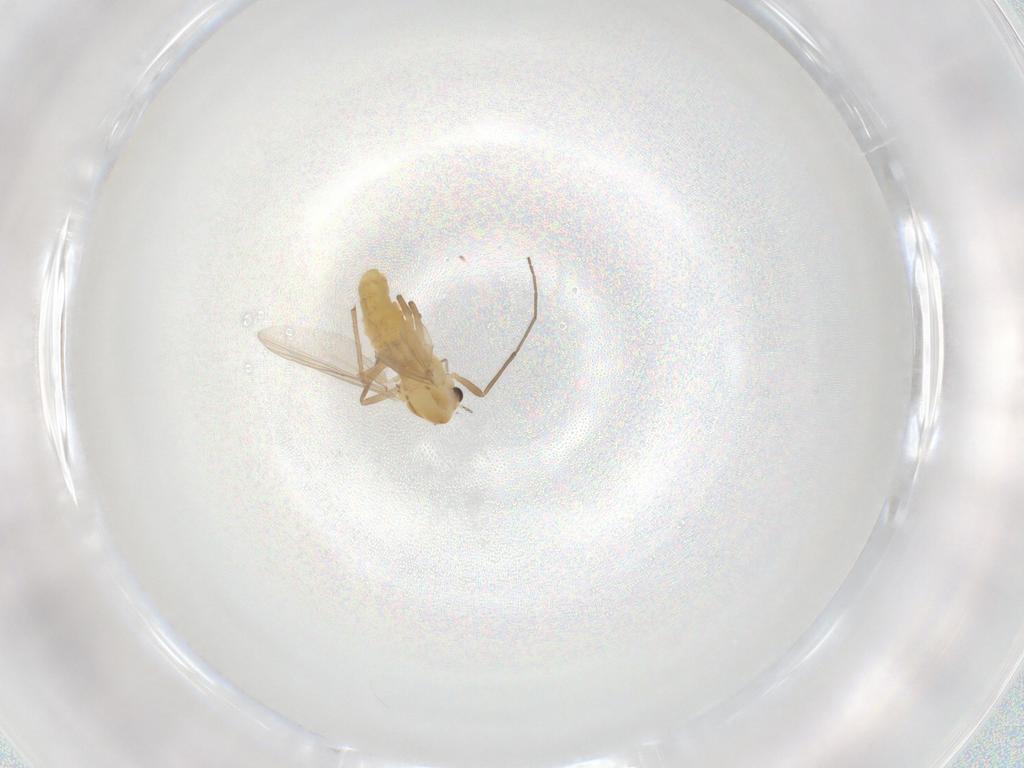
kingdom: Animalia
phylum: Arthropoda
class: Insecta
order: Diptera
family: Chironomidae
